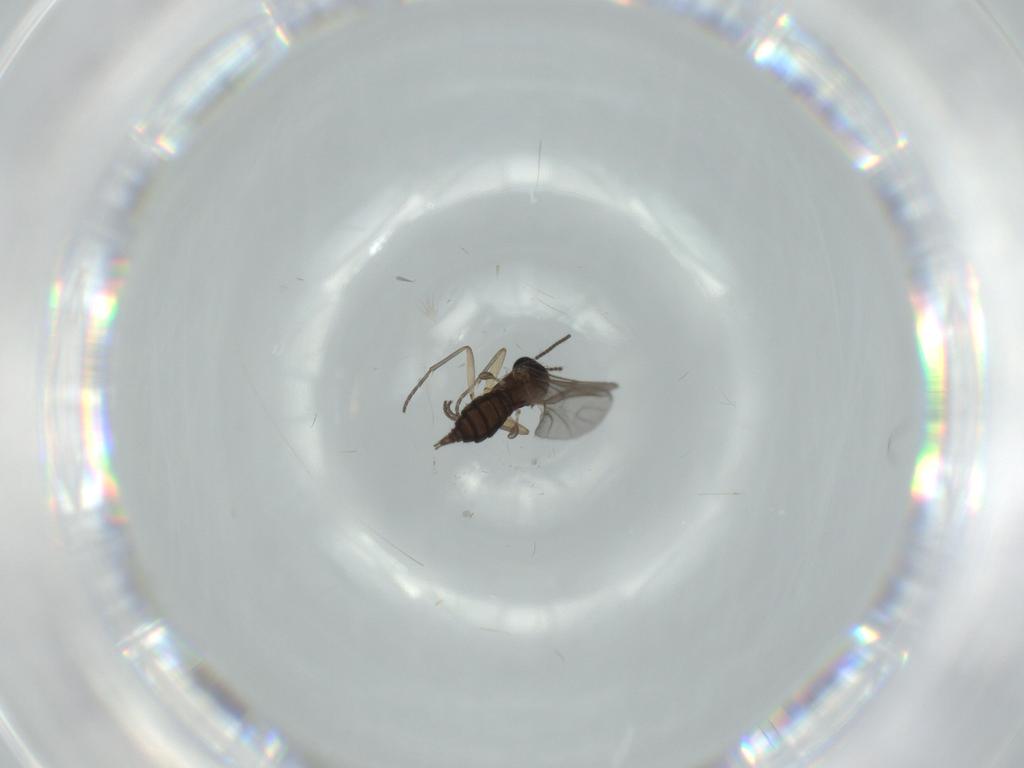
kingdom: Animalia
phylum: Arthropoda
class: Insecta
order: Diptera
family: Sciaridae
